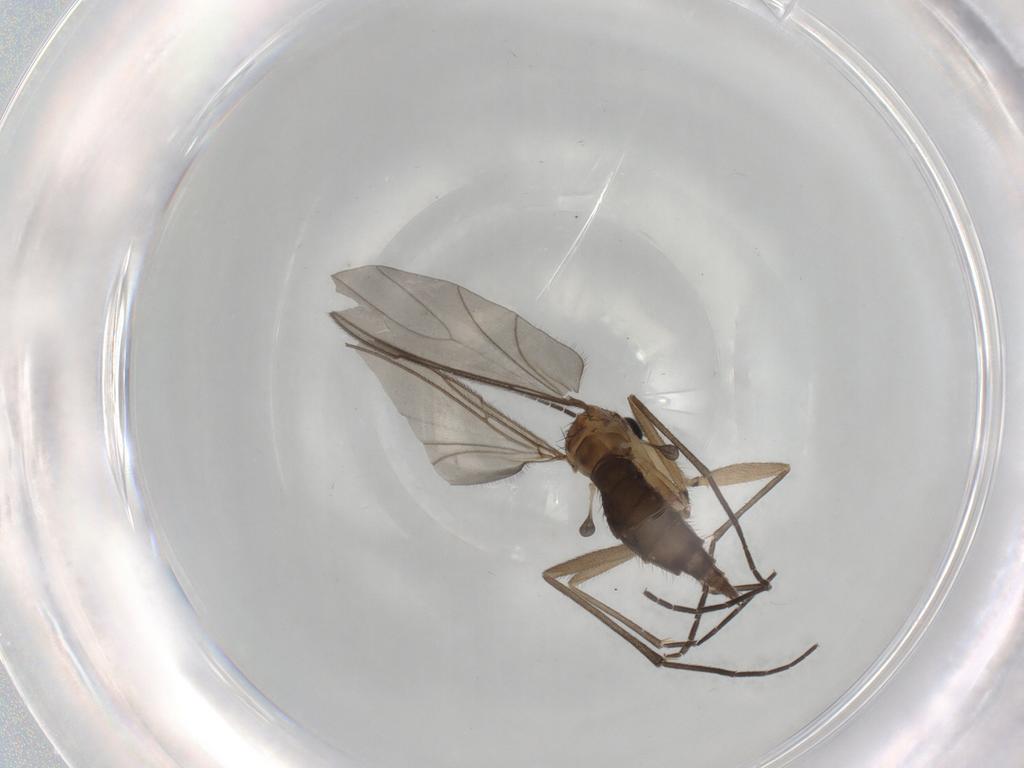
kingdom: Animalia
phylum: Arthropoda
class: Insecta
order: Diptera
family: Sciaridae
